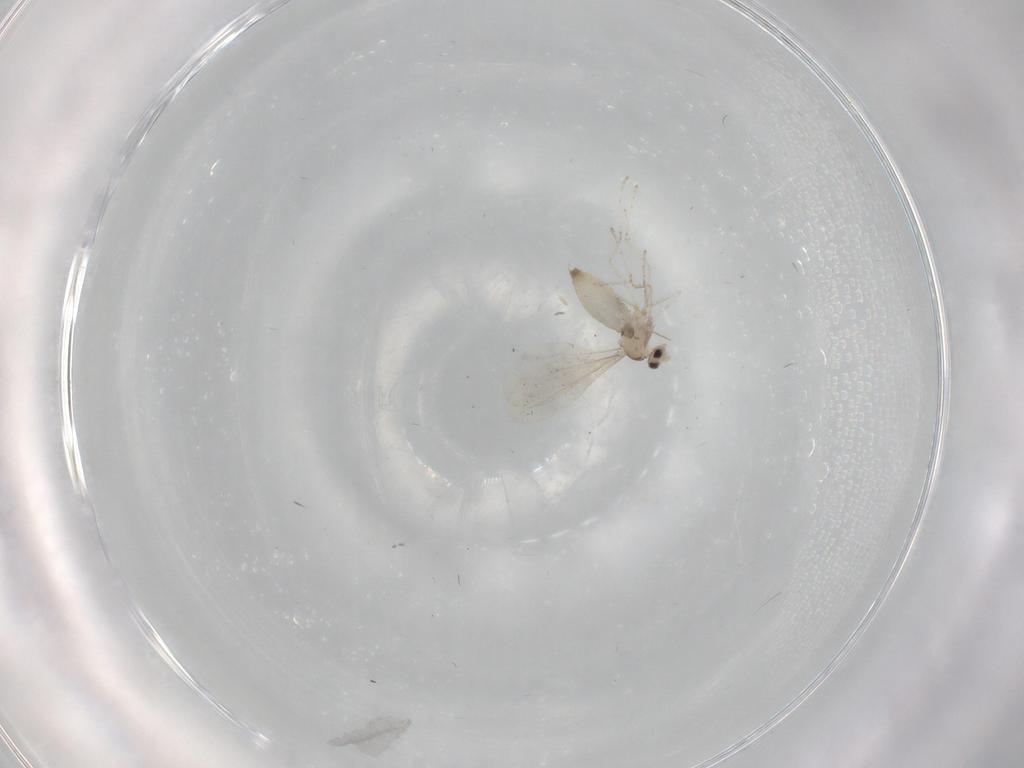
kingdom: Animalia
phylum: Arthropoda
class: Insecta
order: Diptera
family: Cecidomyiidae
